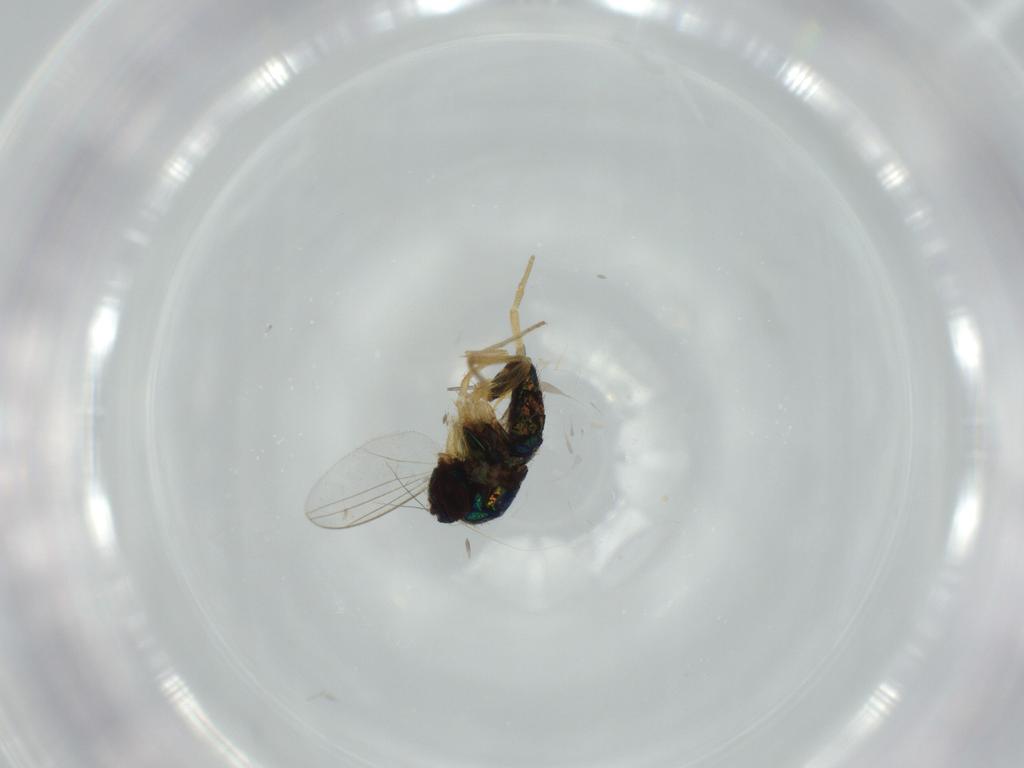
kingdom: Animalia
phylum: Arthropoda
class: Insecta
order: Diptera
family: Dolichopodidae
